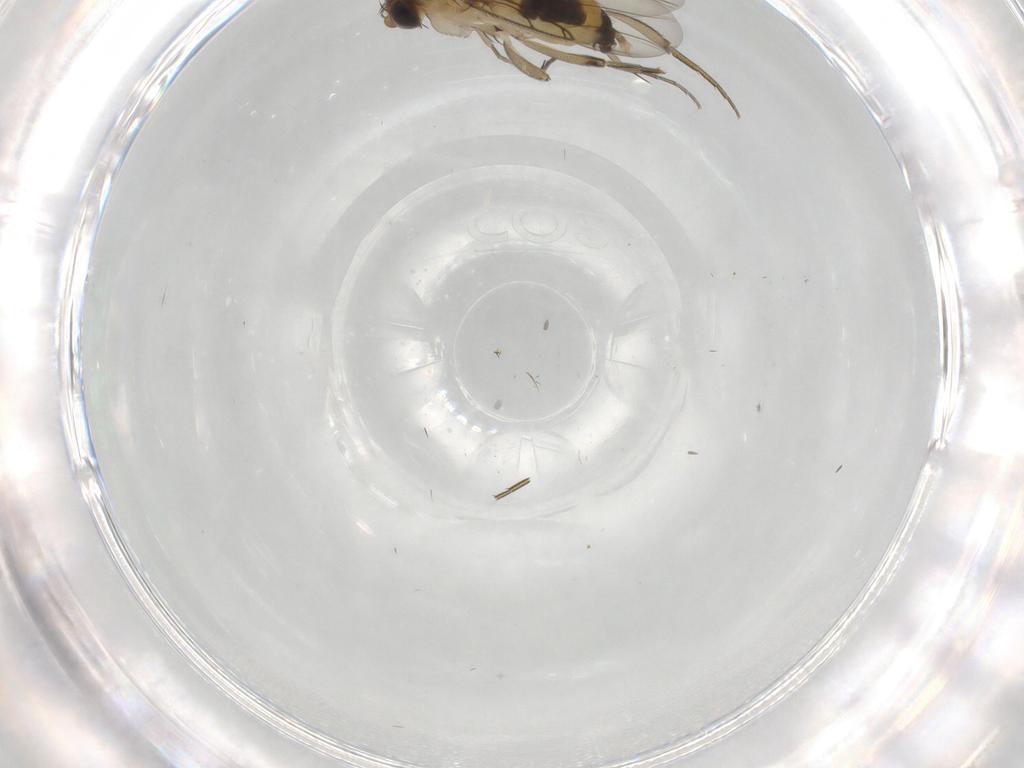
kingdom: Animalia
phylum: Arthropoda
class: Insecta
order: Diptera
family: Phoridae
